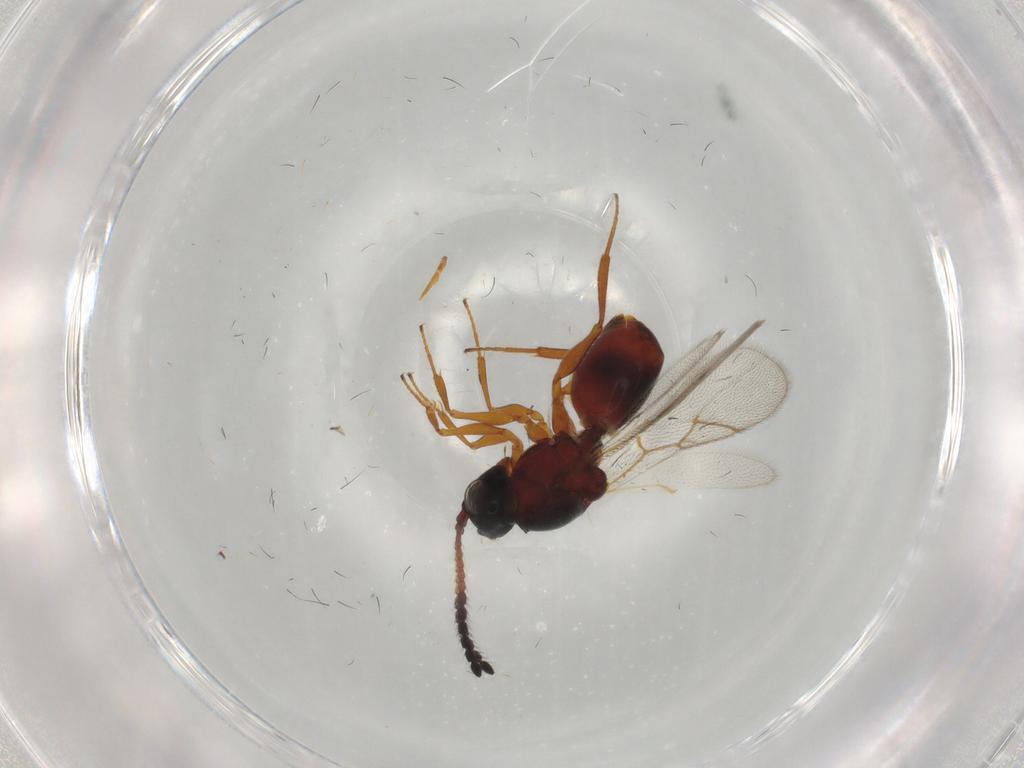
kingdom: Animalia
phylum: Arthropoda
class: Insecta
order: Hymenoptera
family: Figitidae
